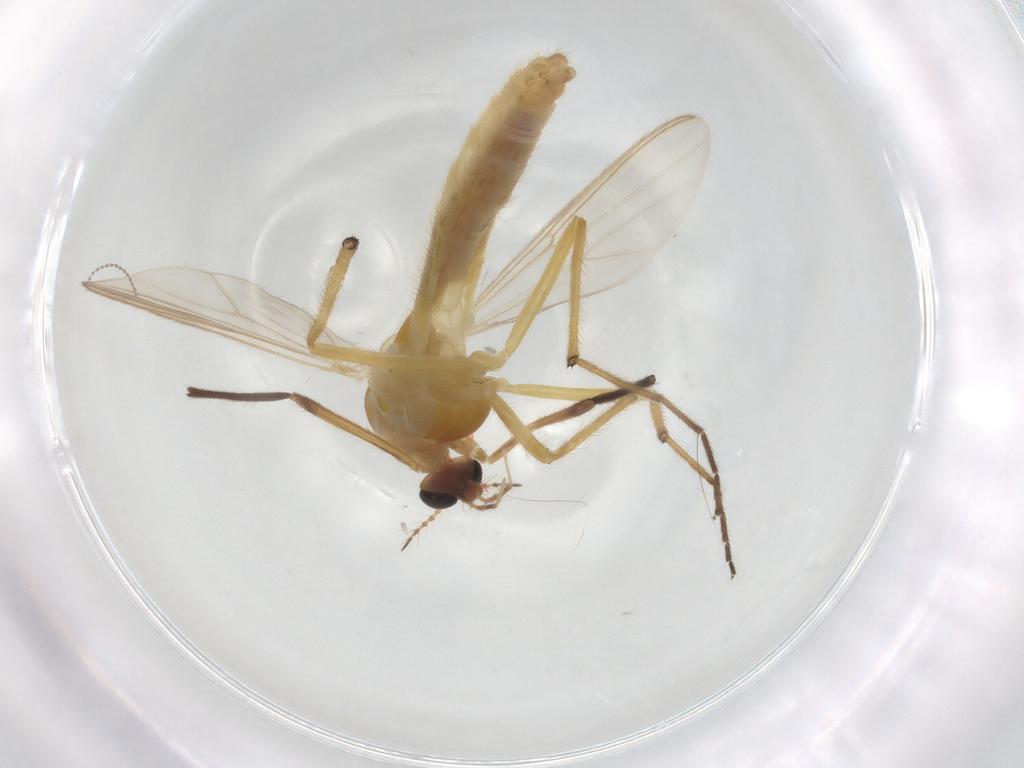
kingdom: Animalia
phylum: Arthropoda
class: Insecta
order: Diptera
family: Chironomidae
